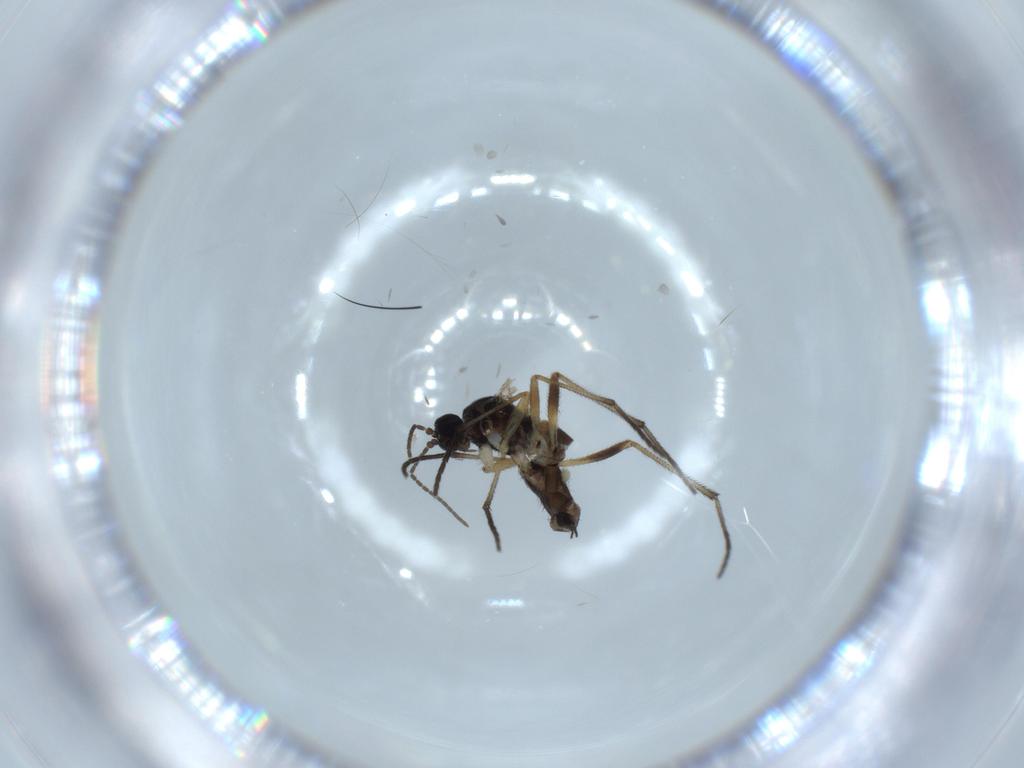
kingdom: Animalia
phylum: Arthropoda
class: Insecta
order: Diptera
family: Sciaridae
